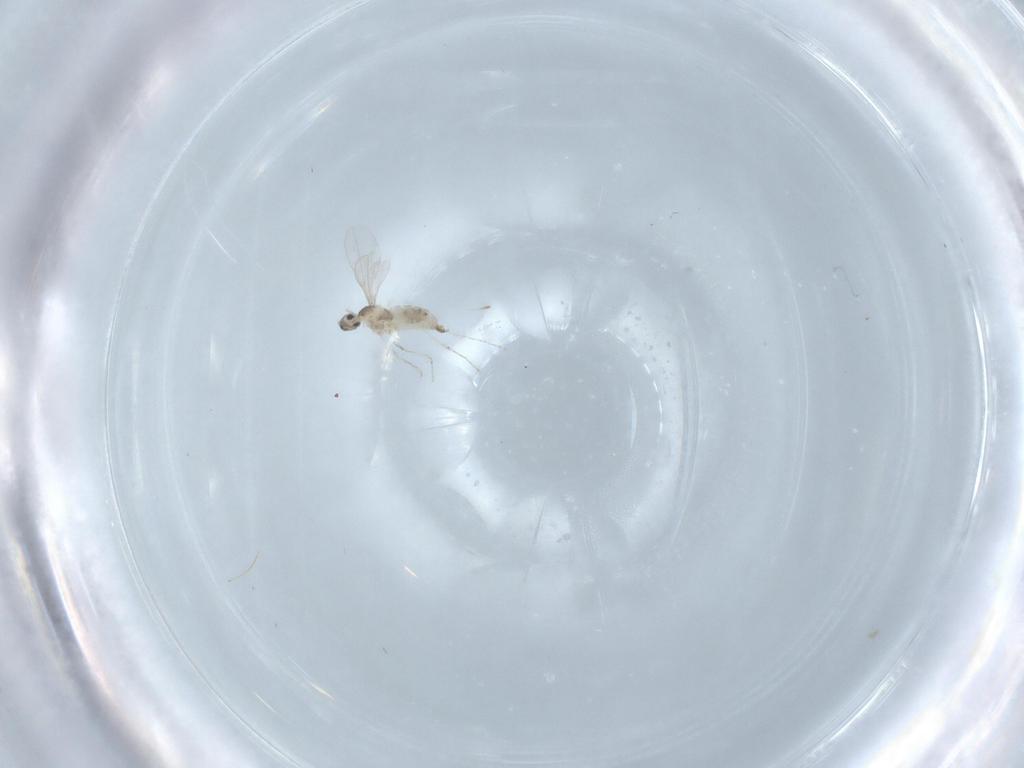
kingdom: Animalia
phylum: Arthropoda
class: Insecta
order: Diptera
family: Cecidomyiidae
